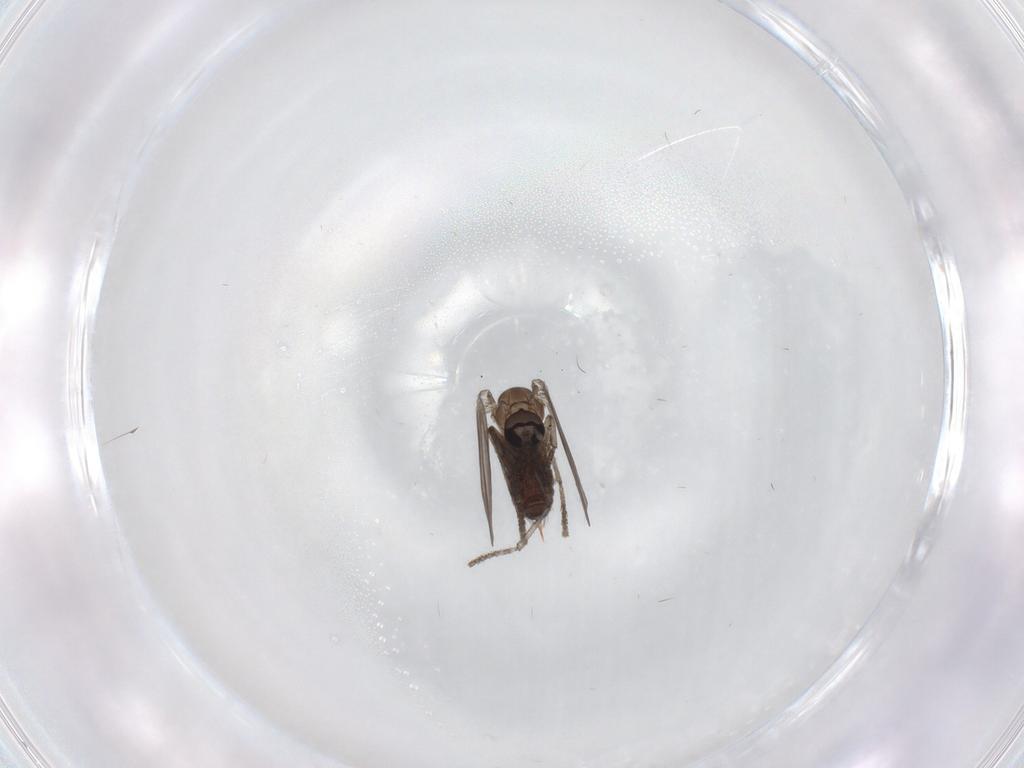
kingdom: Animalia
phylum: Arthropoda
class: Insecta
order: Diptera
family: Psychodidae
